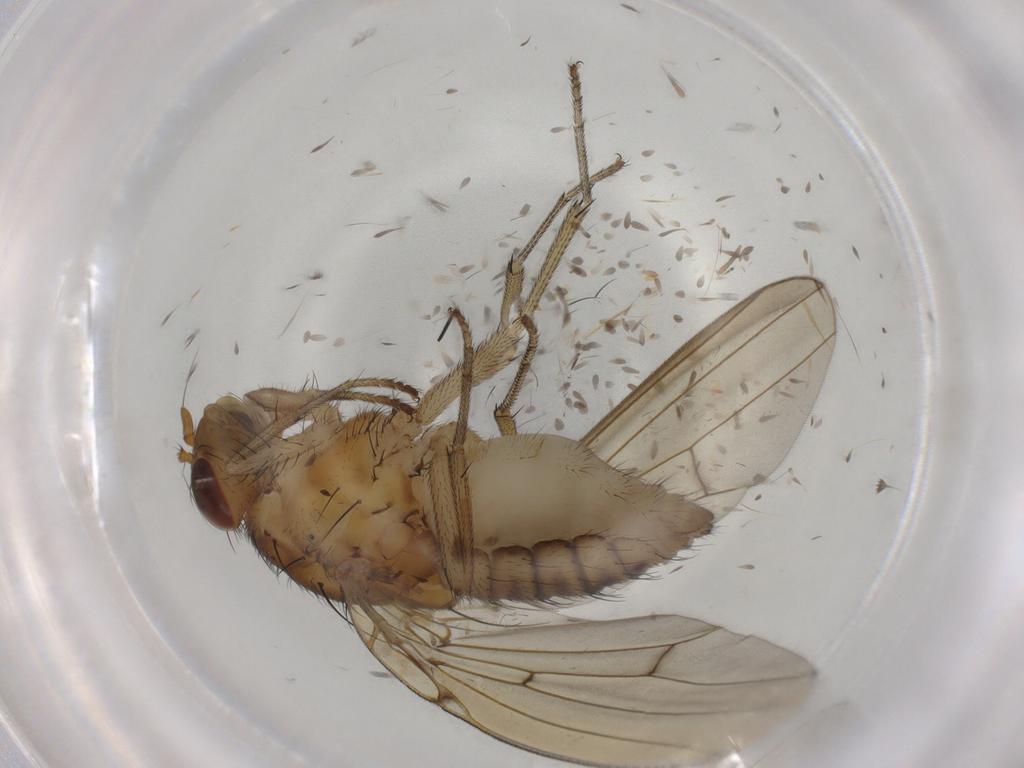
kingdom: Animalia
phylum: Arthropoda
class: Insecta
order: Diptera
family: Mycetophilidae
